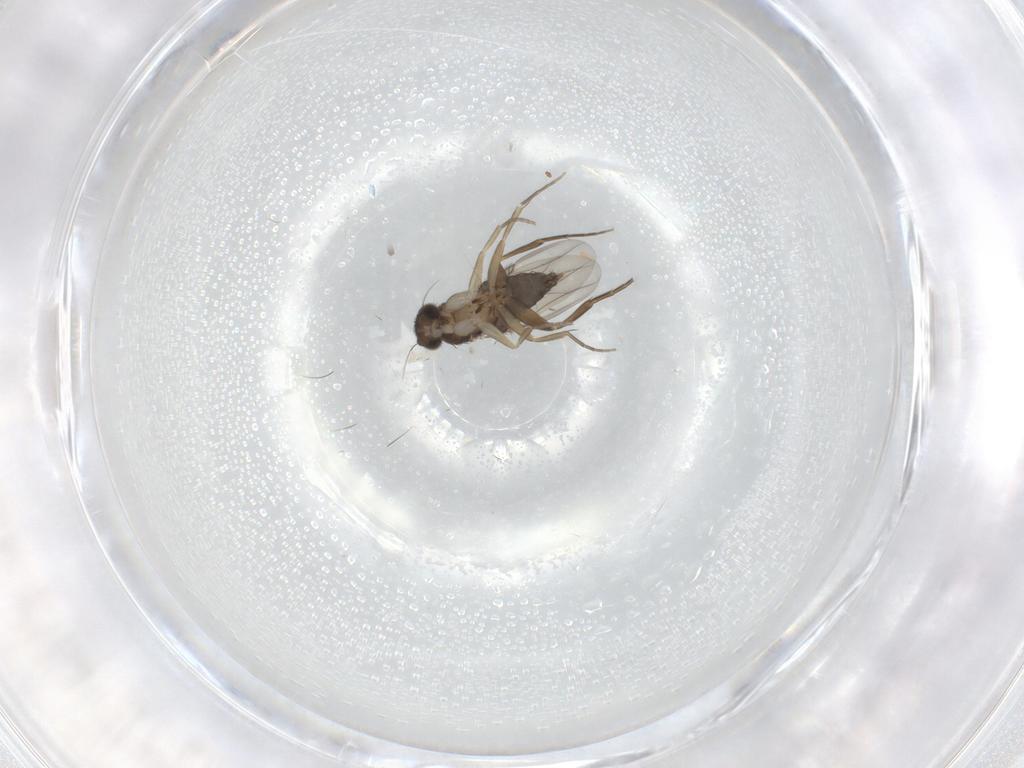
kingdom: Animalia
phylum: Arthropoda
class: Insecta
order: Diptera
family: Phoridae
